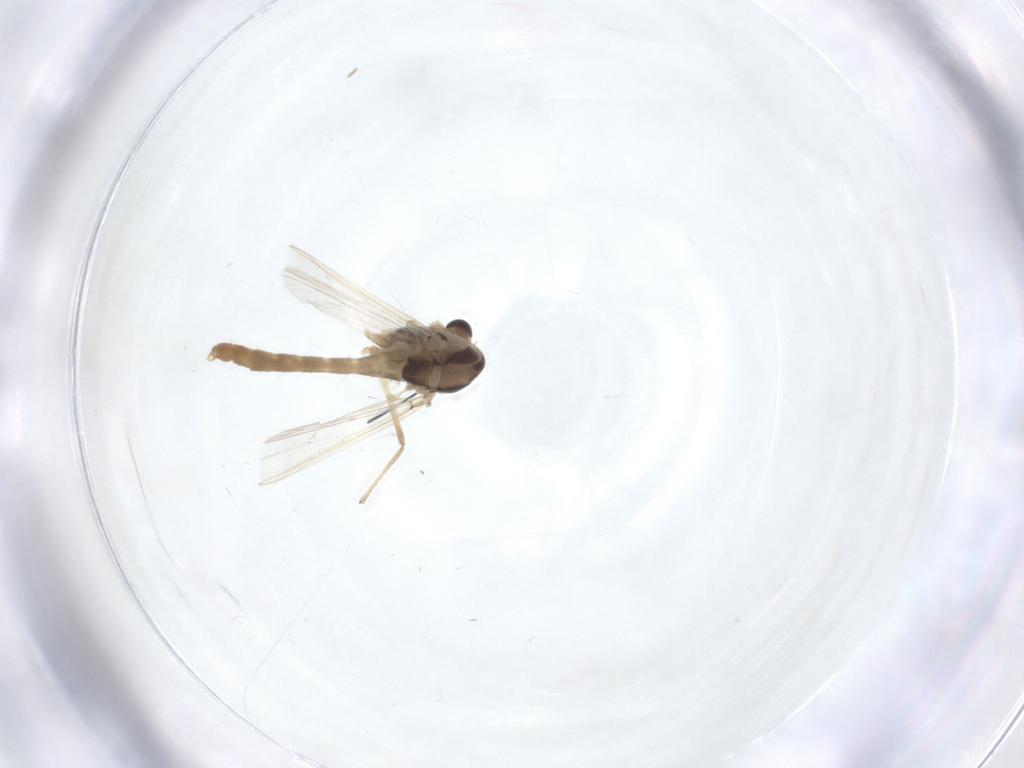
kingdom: Animalia
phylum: Arthropoda
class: Insecta
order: Diptera
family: Chironomidae
